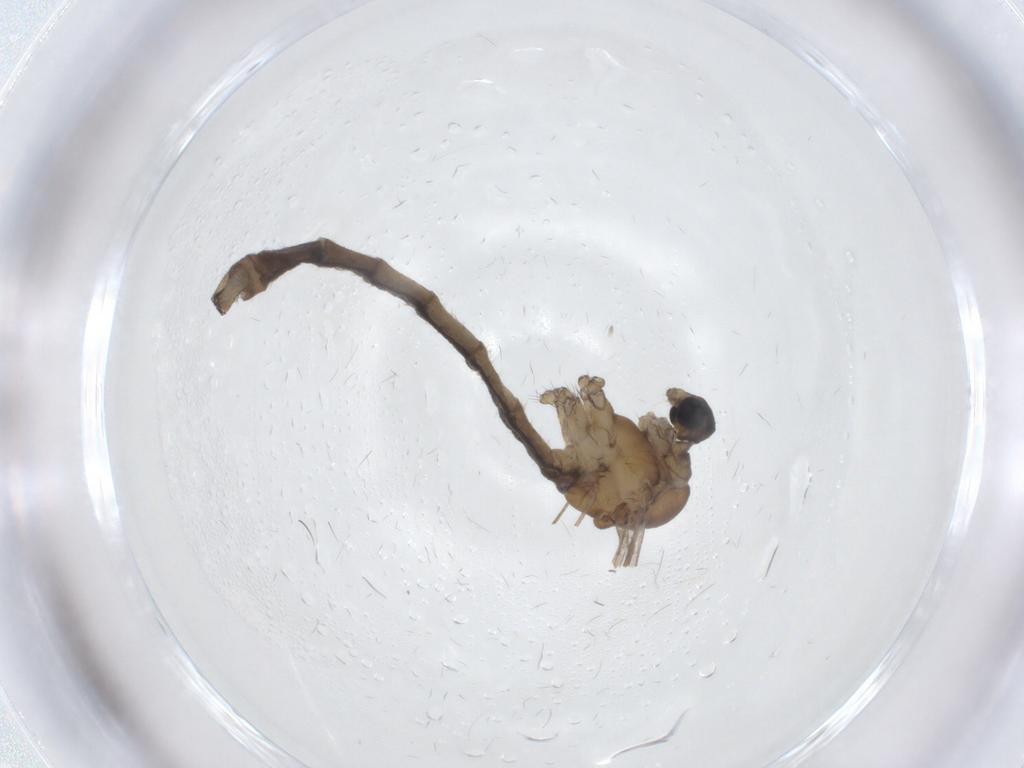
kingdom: Animalia
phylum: Arthropoda
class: Insecta
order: Diptera
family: Limoniidae
